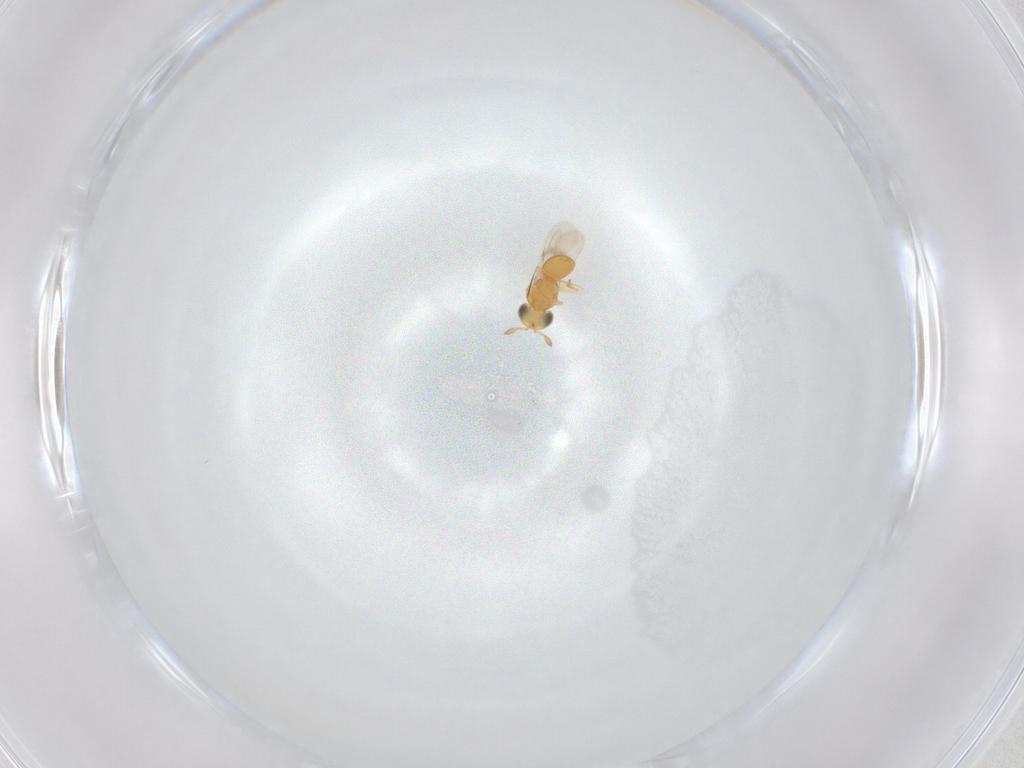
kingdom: Animalia
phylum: Arthropoda
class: Insecta
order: Hymenoptera
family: Scelionidae
